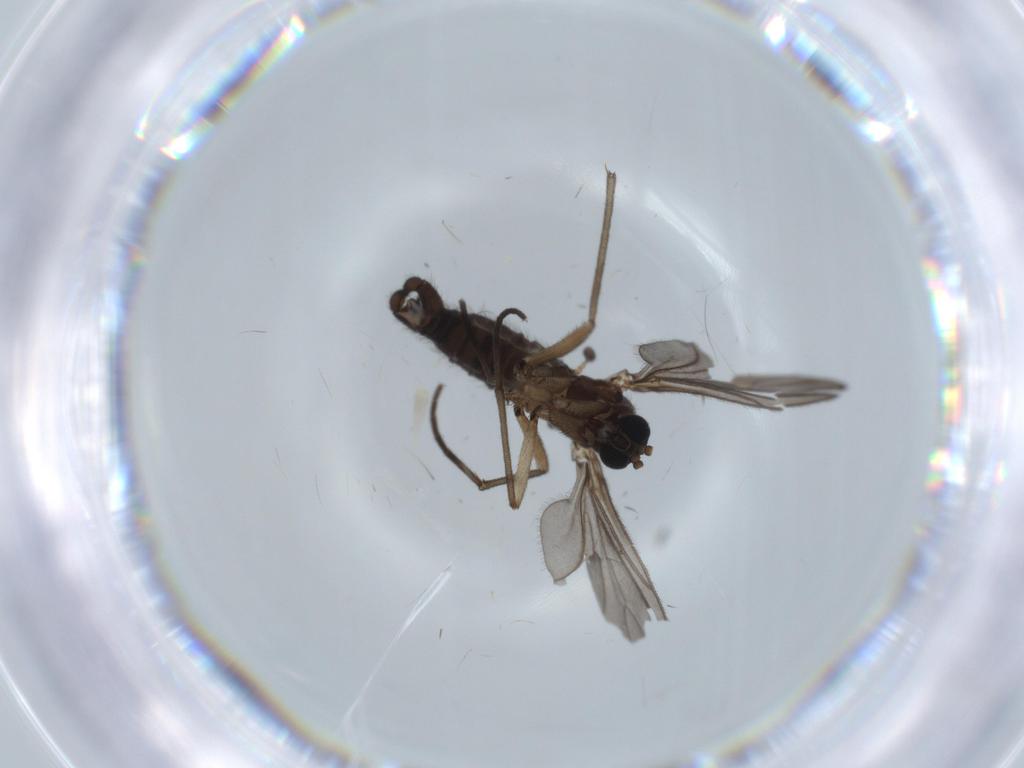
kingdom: Animalia
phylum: Arthropoda
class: Insecta
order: Diptera
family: Sciaridae
